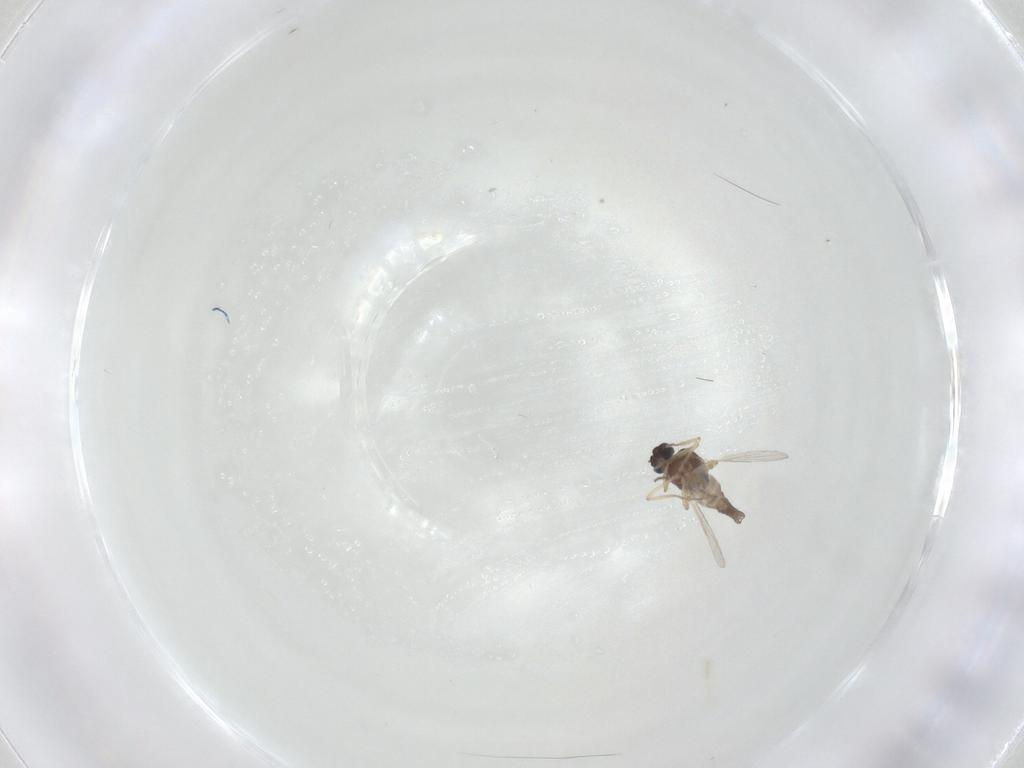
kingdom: Animalia
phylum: Arthropoda
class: Insecta
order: Diptera
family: Ceratopogonidae
